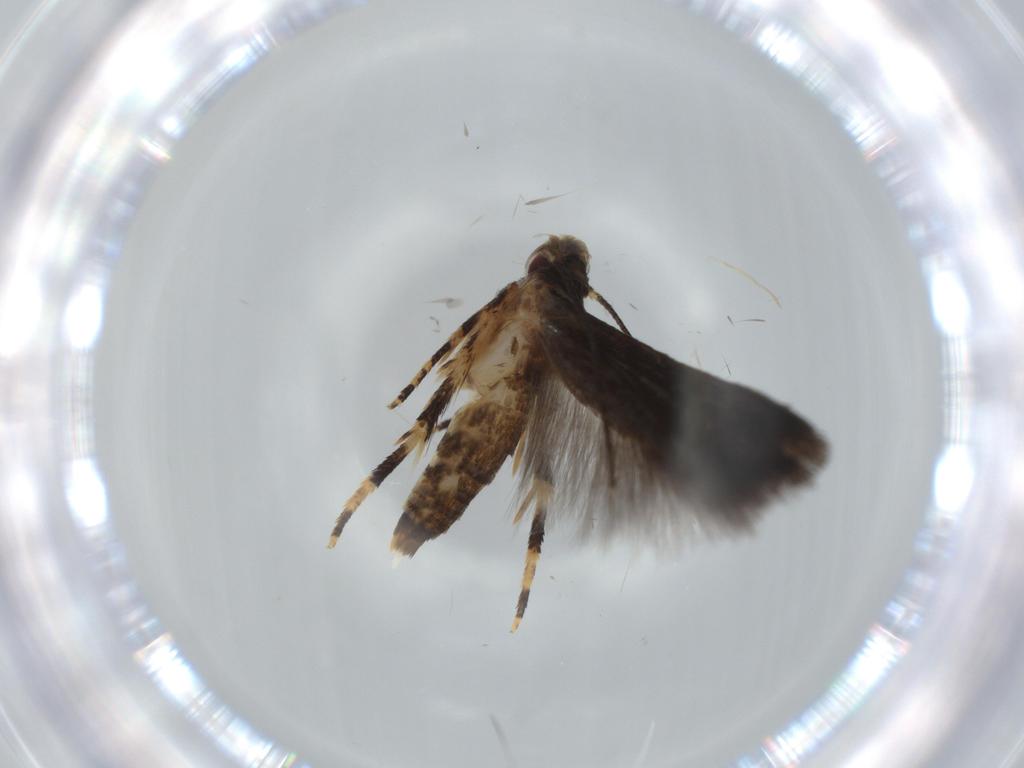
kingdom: Animalia
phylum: Arthropoda
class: Insecta
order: Lepidoptera
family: Momphidae
